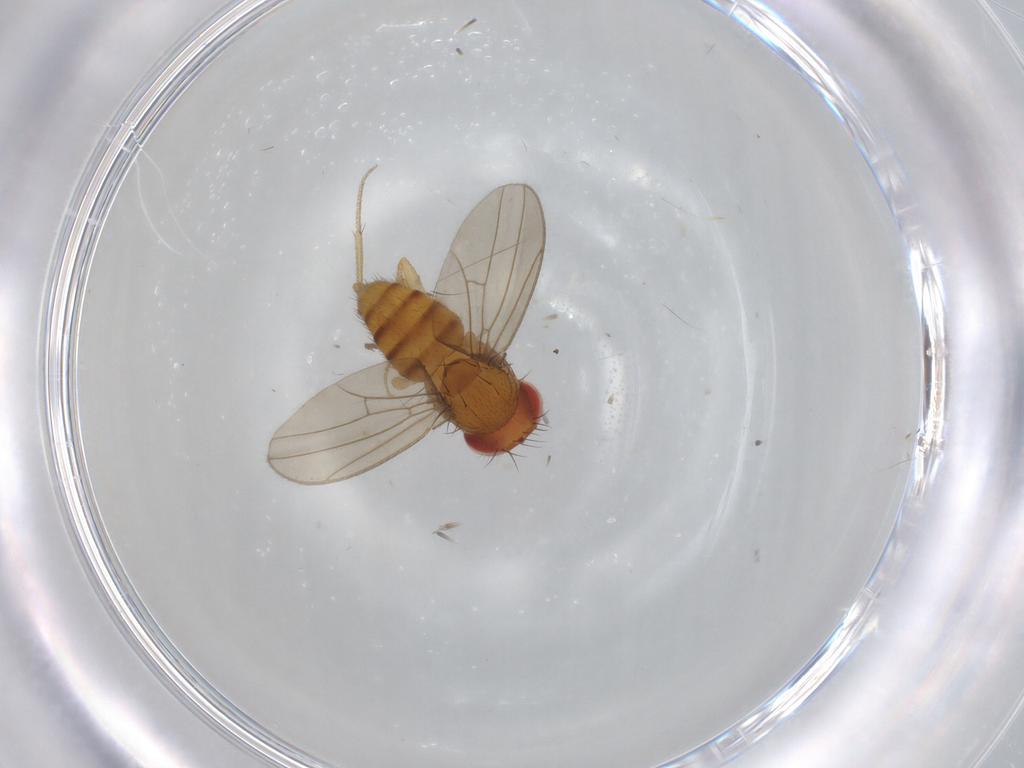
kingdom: Animalia
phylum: Arthropoda
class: Insecta
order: Diptera
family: Drosophilidae
